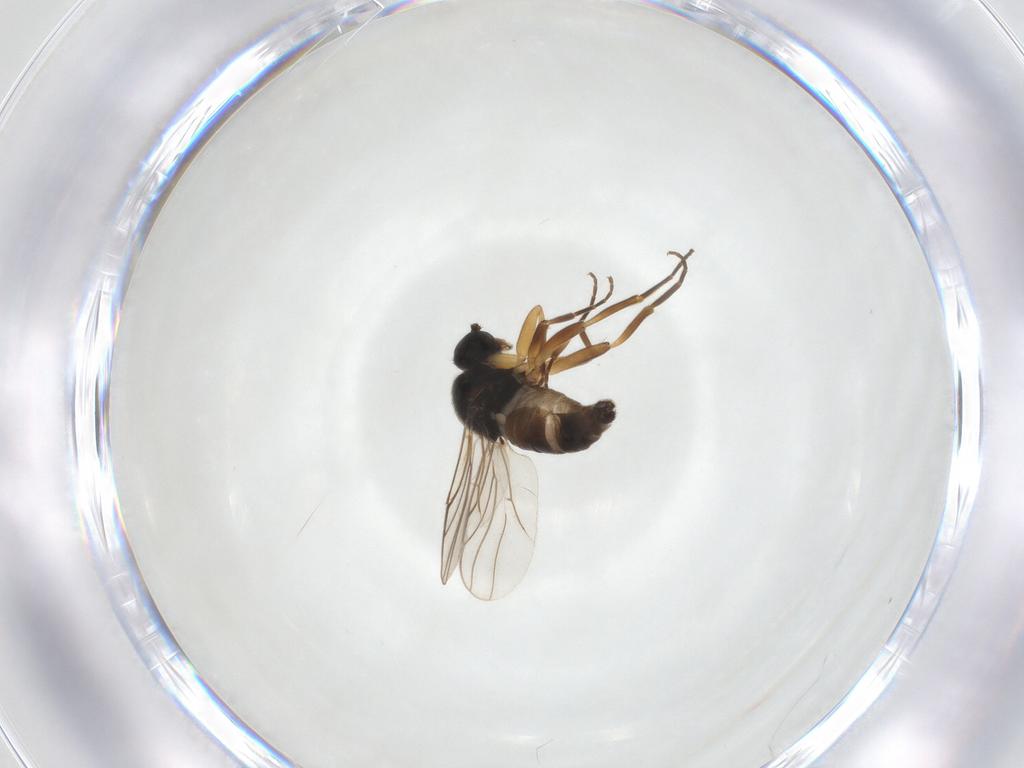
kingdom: Animalia
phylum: Arthropoda
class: Insecta
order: Diptera
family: Hybotidae
